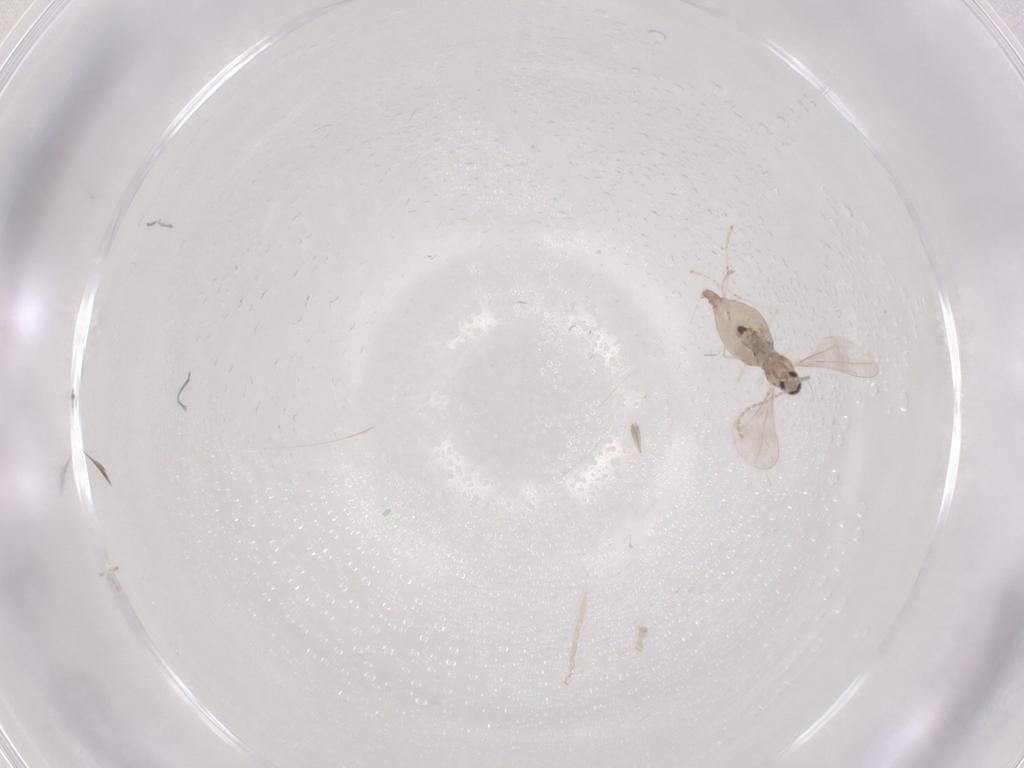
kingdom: Animalia
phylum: Arthropoda
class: Insecta
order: Diptera
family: Cecidomyiidae
